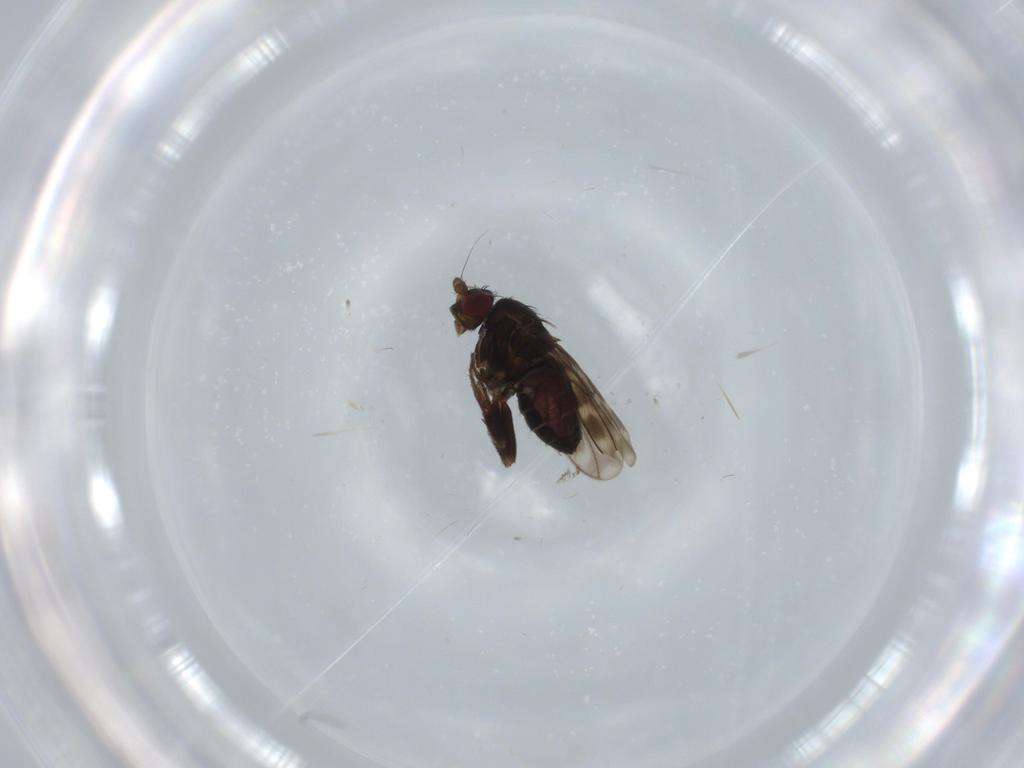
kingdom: Animalia
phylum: Arthropoda
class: Insecta
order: Diptera
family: Sphaeroceridae
